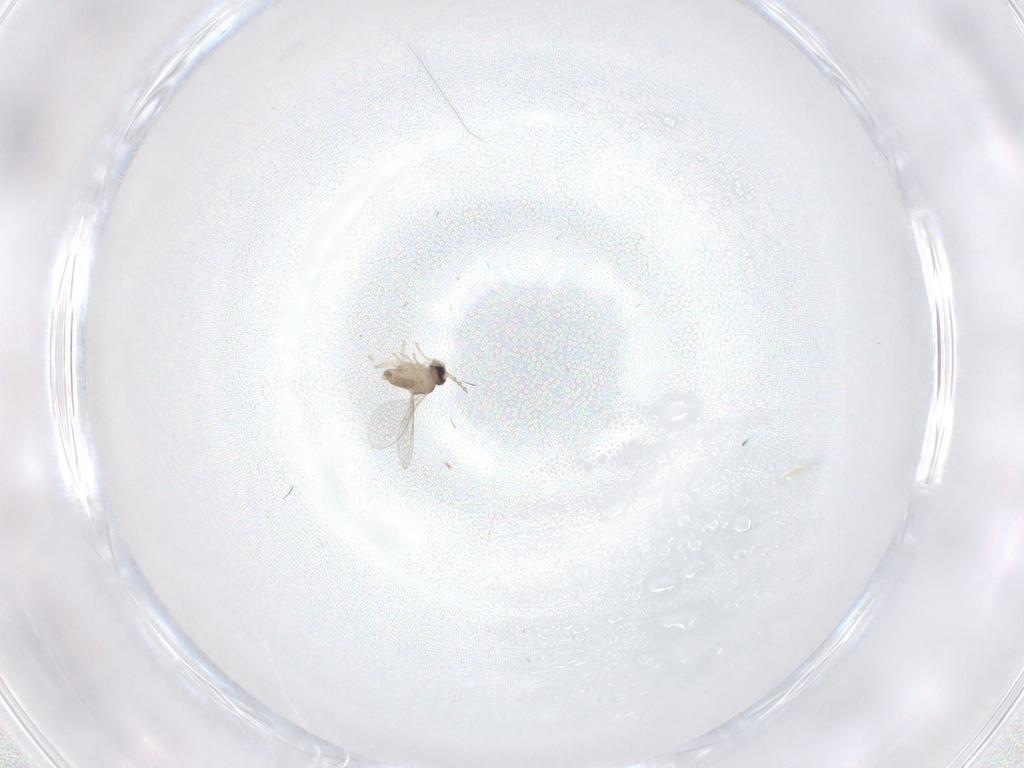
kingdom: Animalia
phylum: Arthropoda
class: Insecta
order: Diptera
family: Cecidomyiidae
